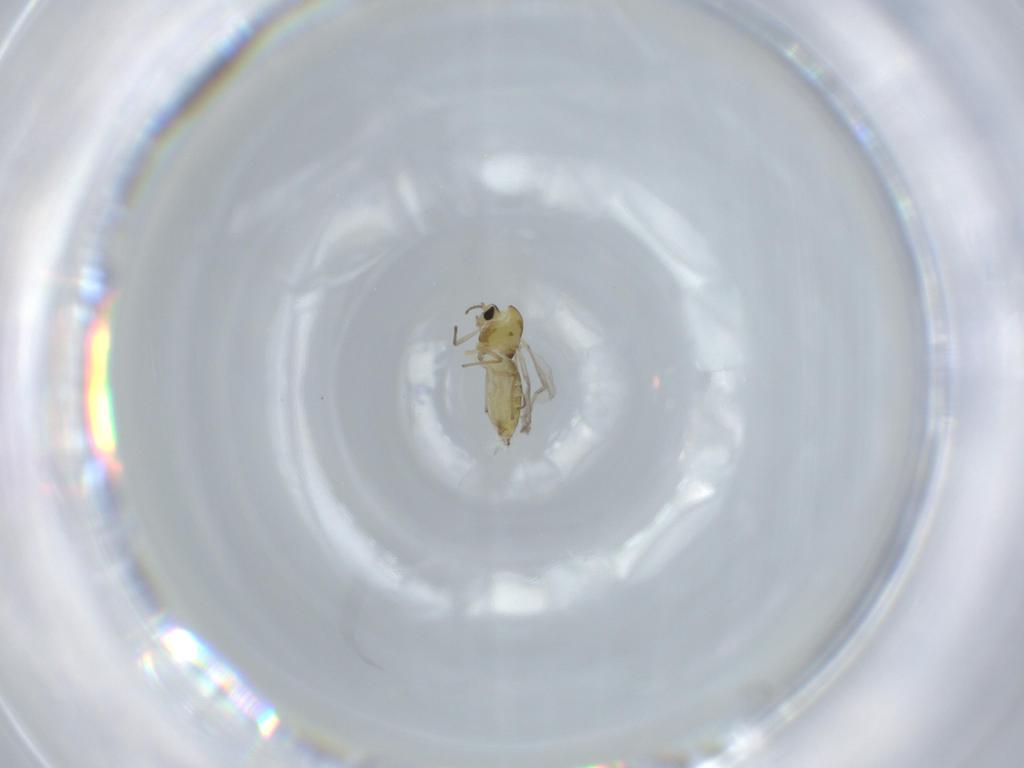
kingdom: Animalia
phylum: Arthropoda
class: Insecta
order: Diptera
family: Chironomidae
